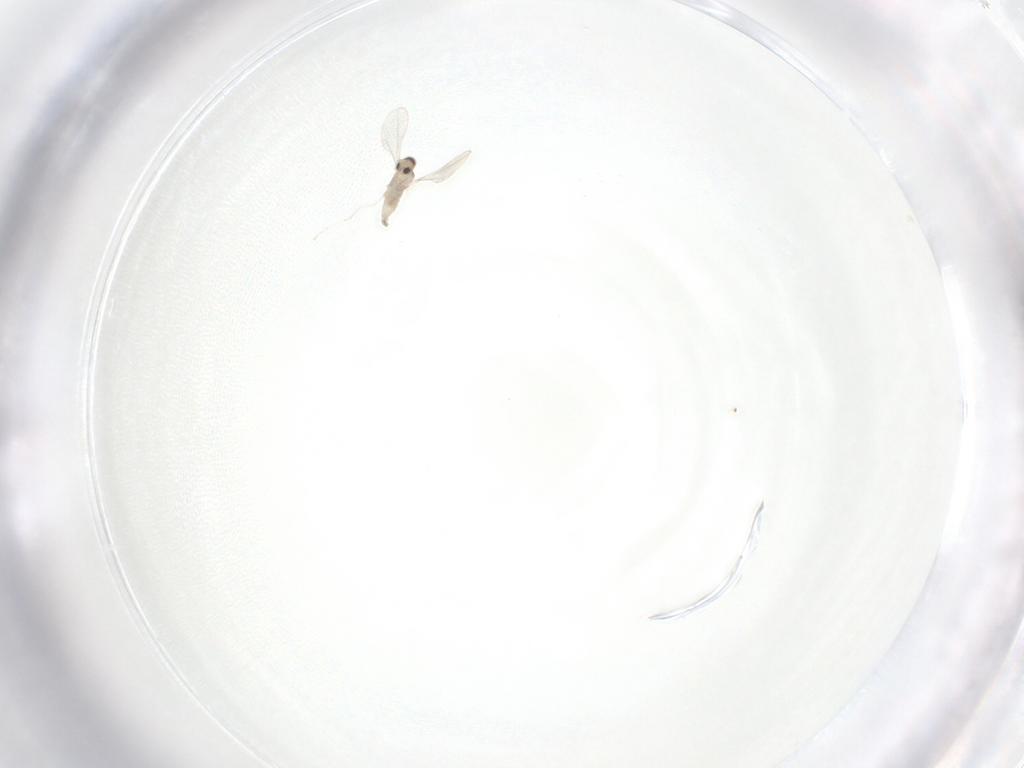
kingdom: Animalia
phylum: Arthropoda
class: Insecta
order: Diptera
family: Cecidomyiidae
